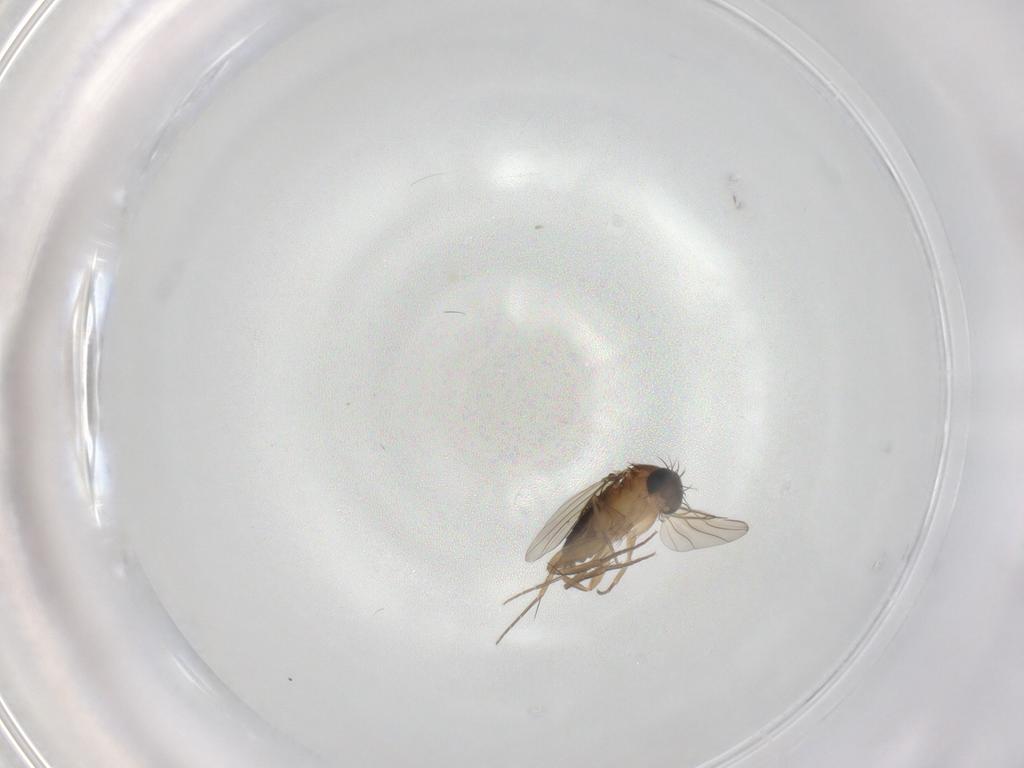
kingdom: Animalia
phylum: Arthropoda
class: Insecta
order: Diptera
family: Phoridae
